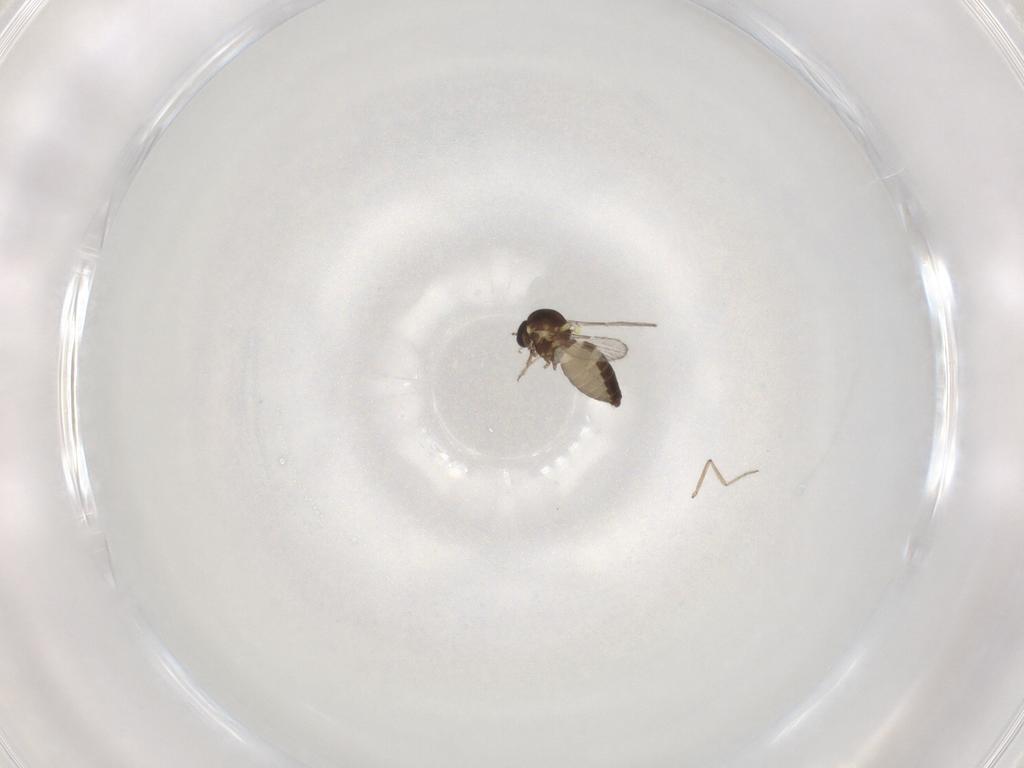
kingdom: Animalia
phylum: Arthropoda
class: Insecta
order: Diptera
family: Ceratopogonidae
